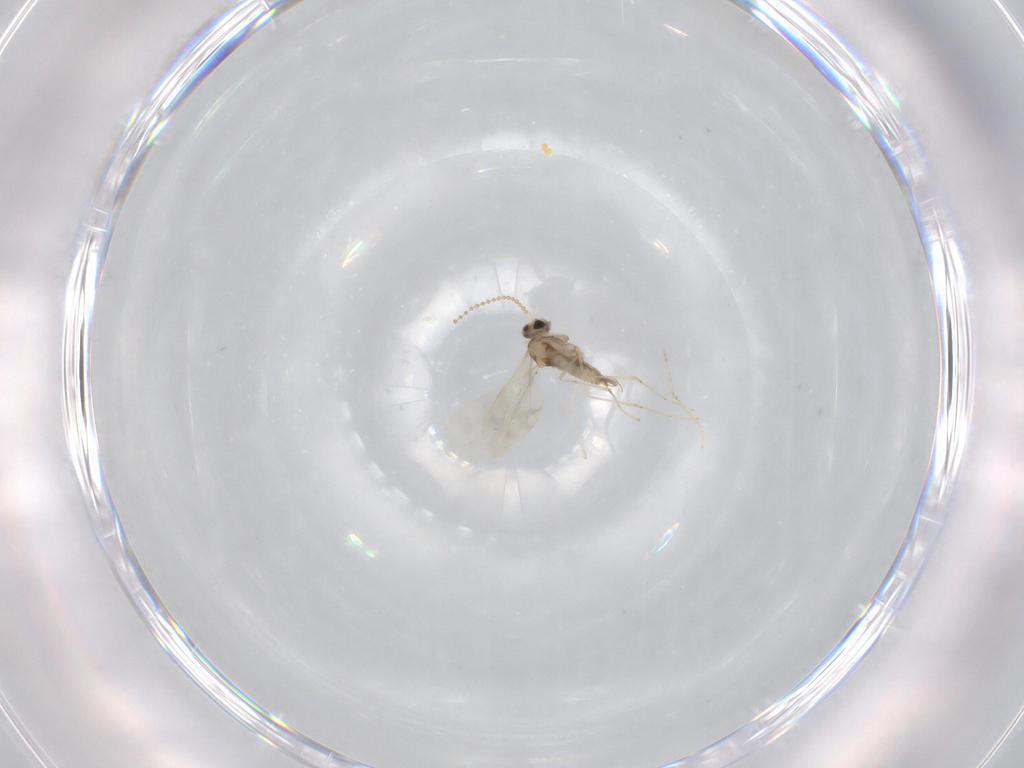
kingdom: Animalia
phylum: Arthropoda
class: Insecta
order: Diptera
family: Cecidomyiidae
